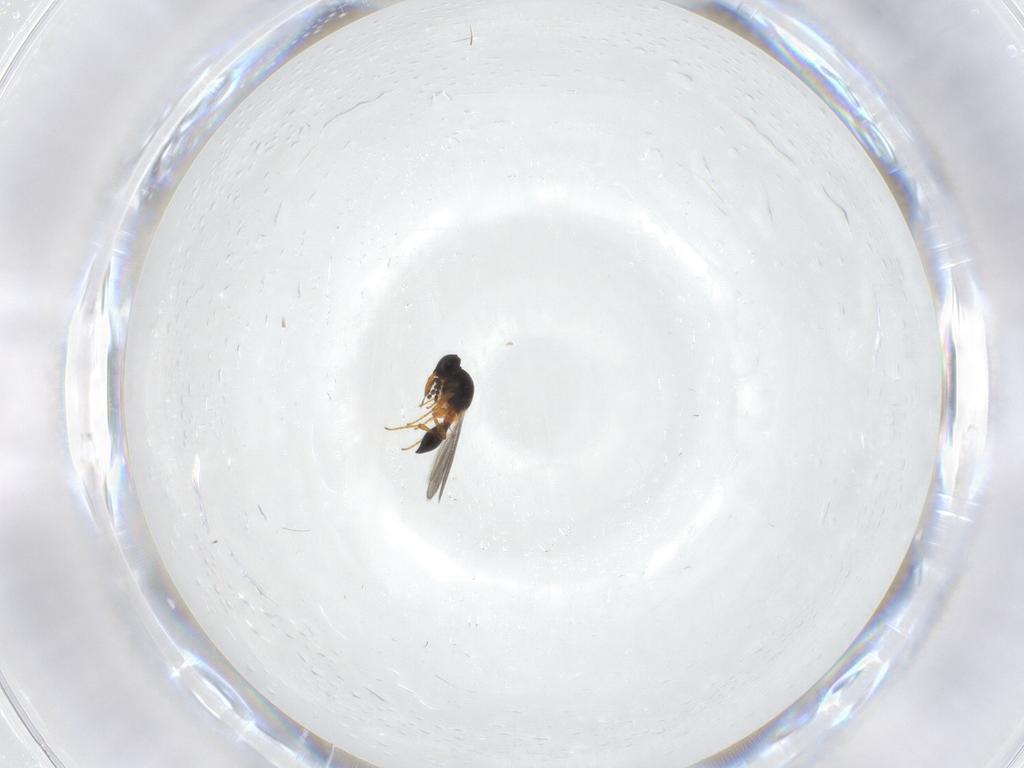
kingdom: Animalia
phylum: Arthropoda
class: Insecta
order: Hymenoptera
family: Platygastridae
